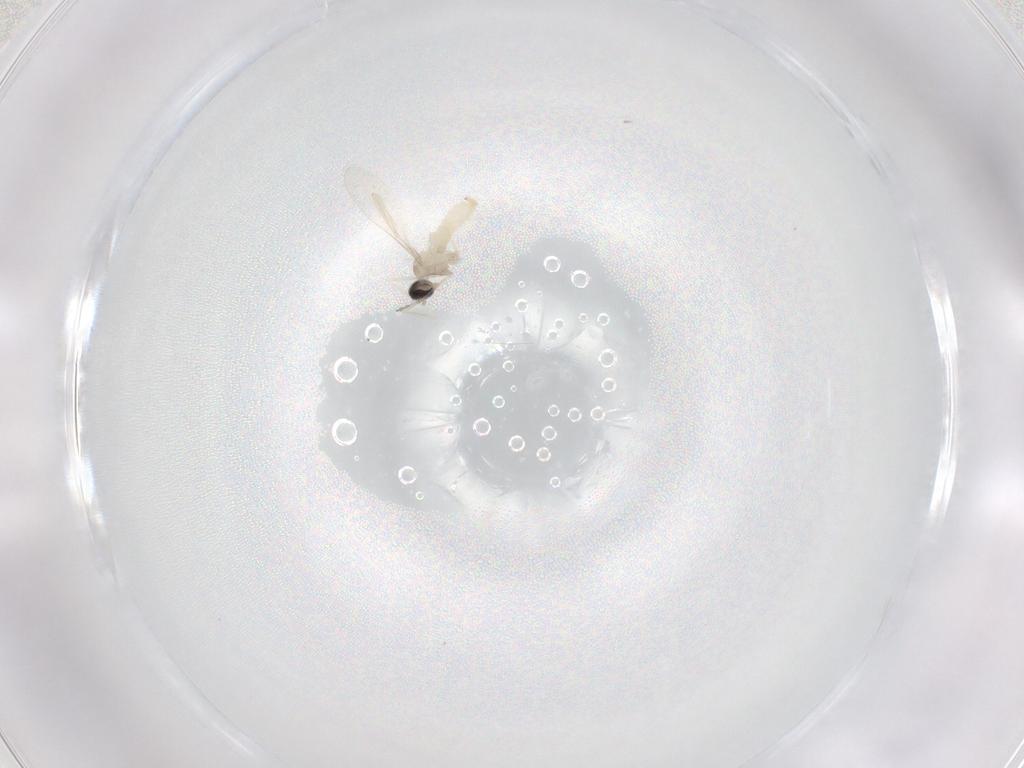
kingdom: Animalia
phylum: Arthropoda
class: Insecta
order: Diptera
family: Cecidomyiidae
